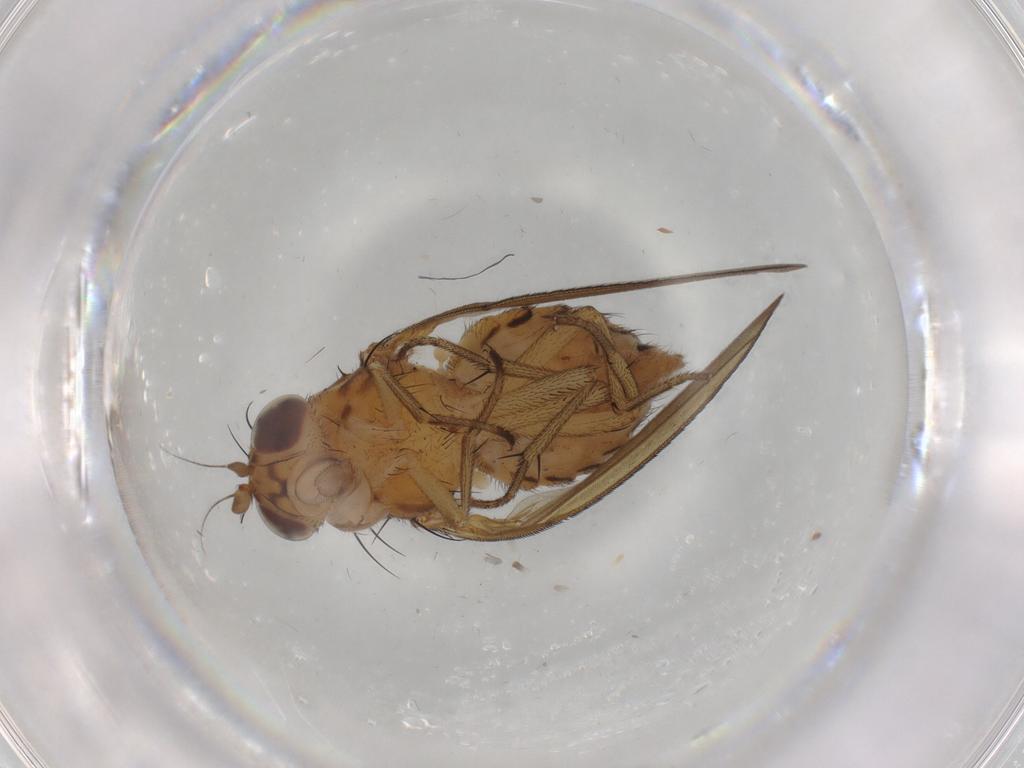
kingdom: Animalia
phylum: Arthropoda
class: Insecta
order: Diptera
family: Sciaridae
